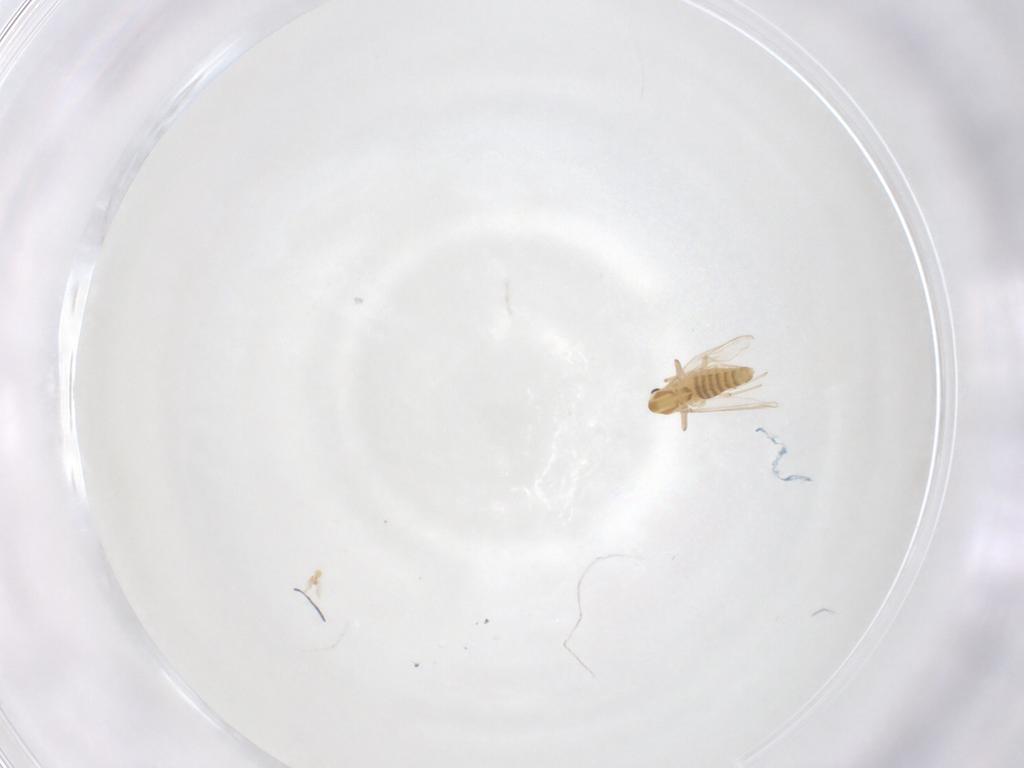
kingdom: Animalia
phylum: Arthropoda
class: Insecta
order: Diptera
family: Chironomidae
